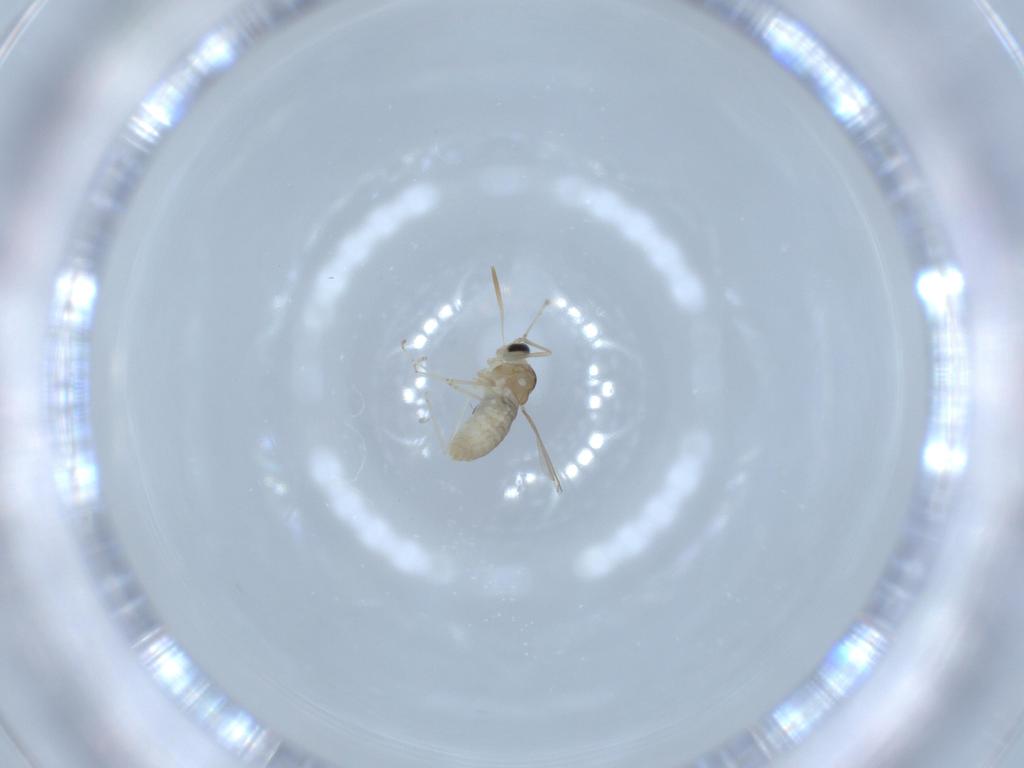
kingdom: Animalia
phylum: Arthropoda
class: Insecta
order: Diptera
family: Cecidomyiidae
